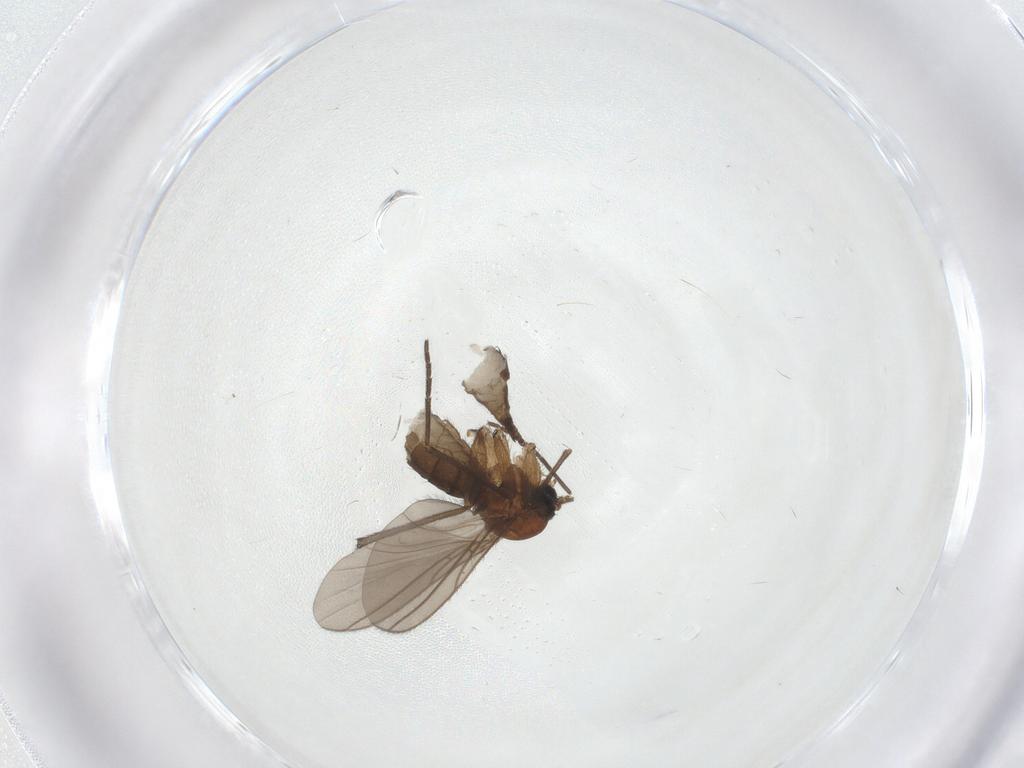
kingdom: Animalia
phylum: Arthropoda
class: Insecta
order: Diptera
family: Sciaridae
